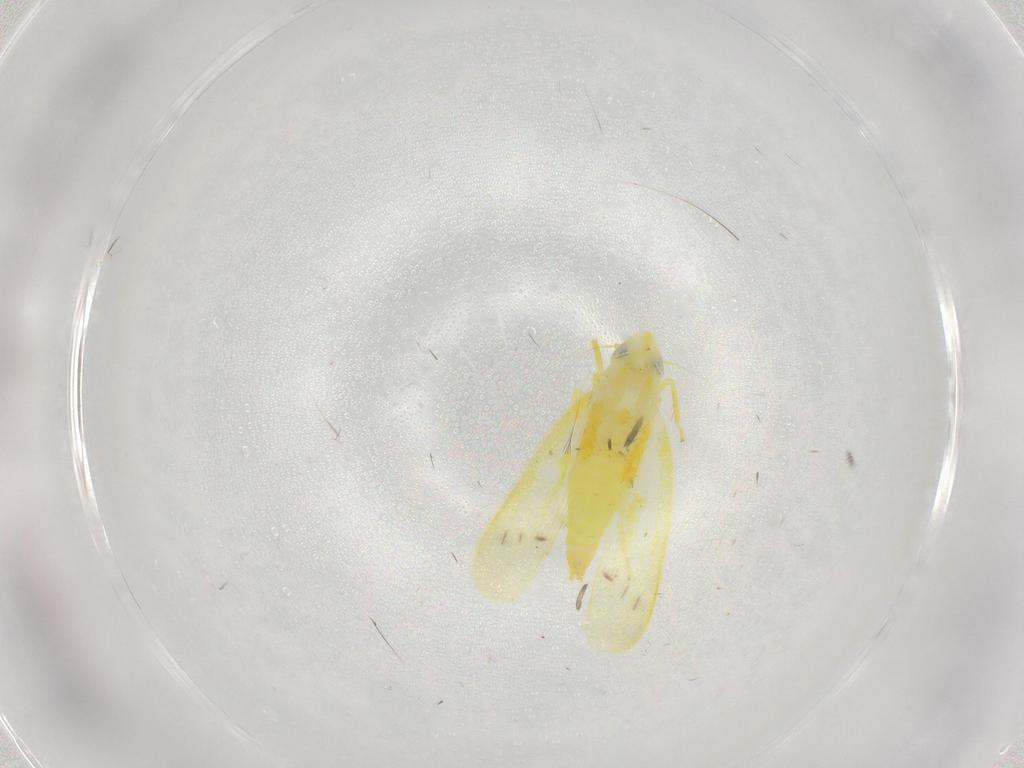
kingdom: Animalia
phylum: Arthropoda
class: Insecta
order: Hemiptera
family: Cicadellidae
